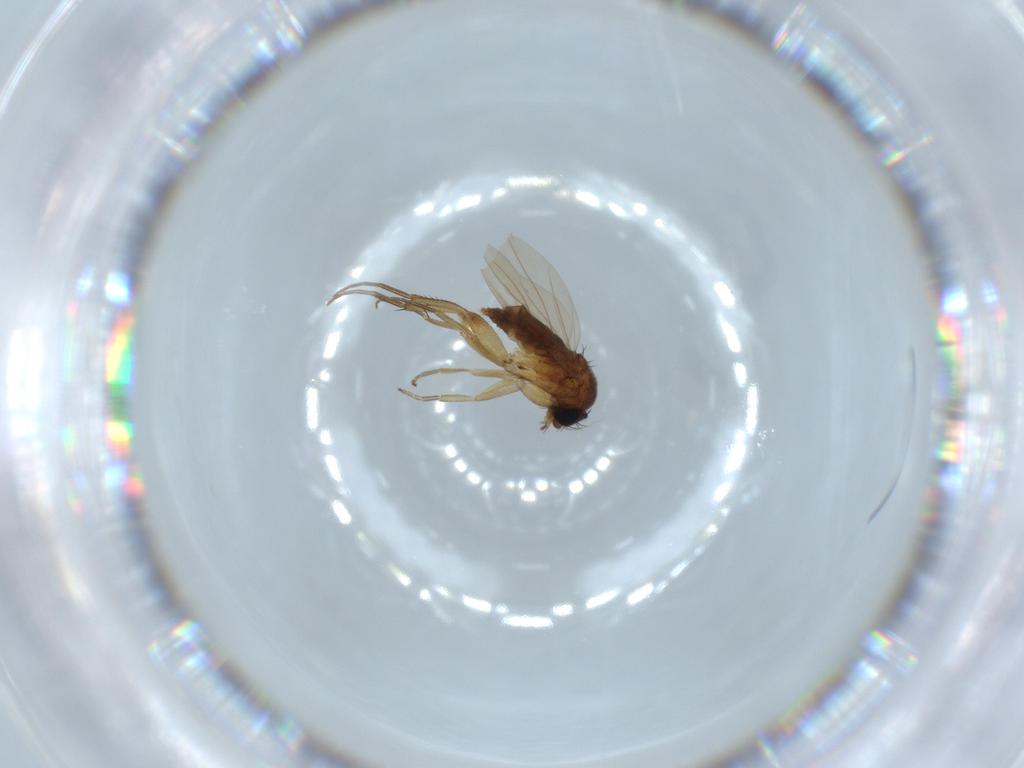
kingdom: Animalia
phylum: Arthropoda
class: Insecta
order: Diptera
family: Phoridae
